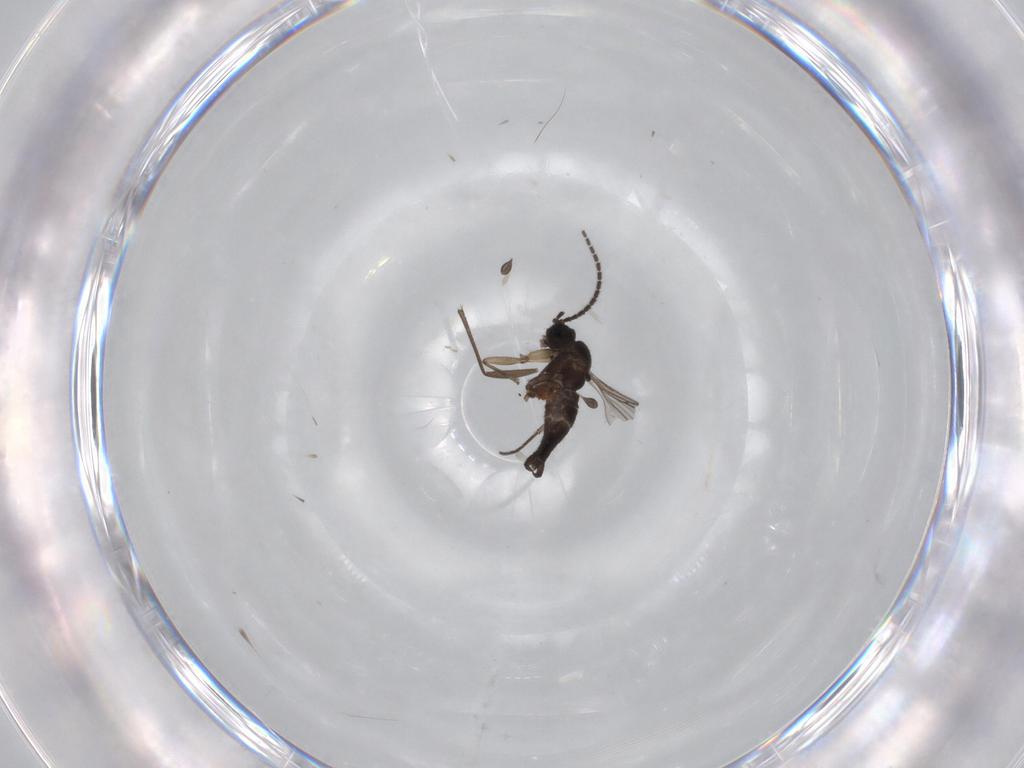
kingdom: Animalia
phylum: Arthropoda
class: Insecta
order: Diptera
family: Sciaridae
